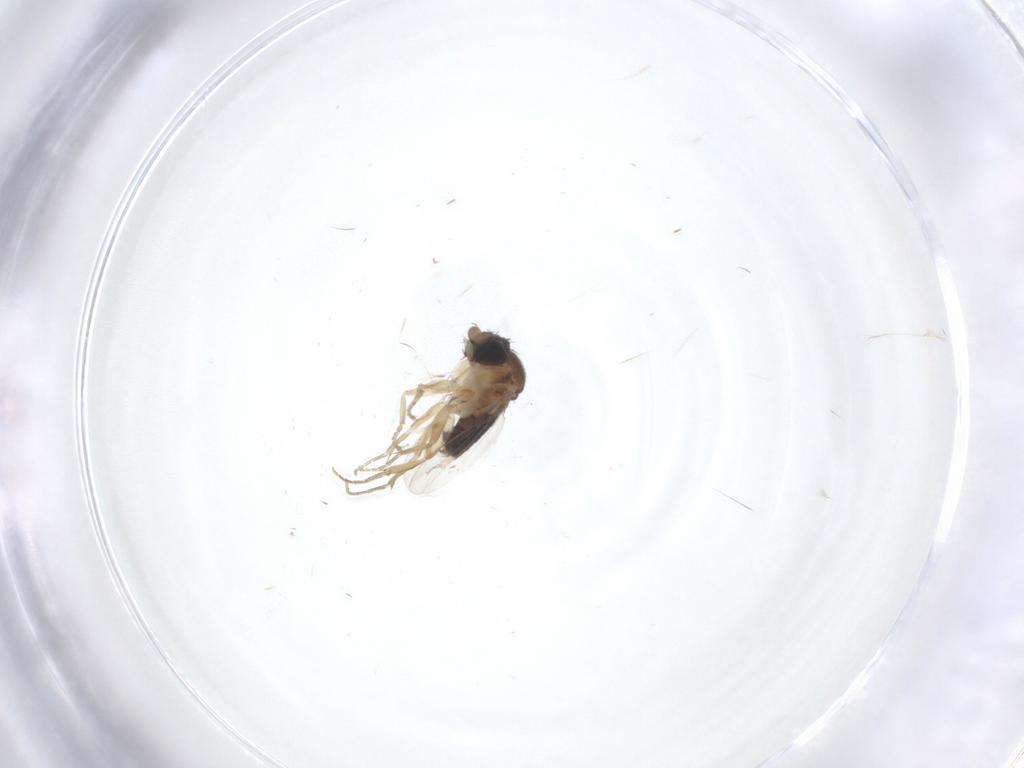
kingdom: Animalia
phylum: Arthropoda
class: Insecta
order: Diptera
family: Phoridae
